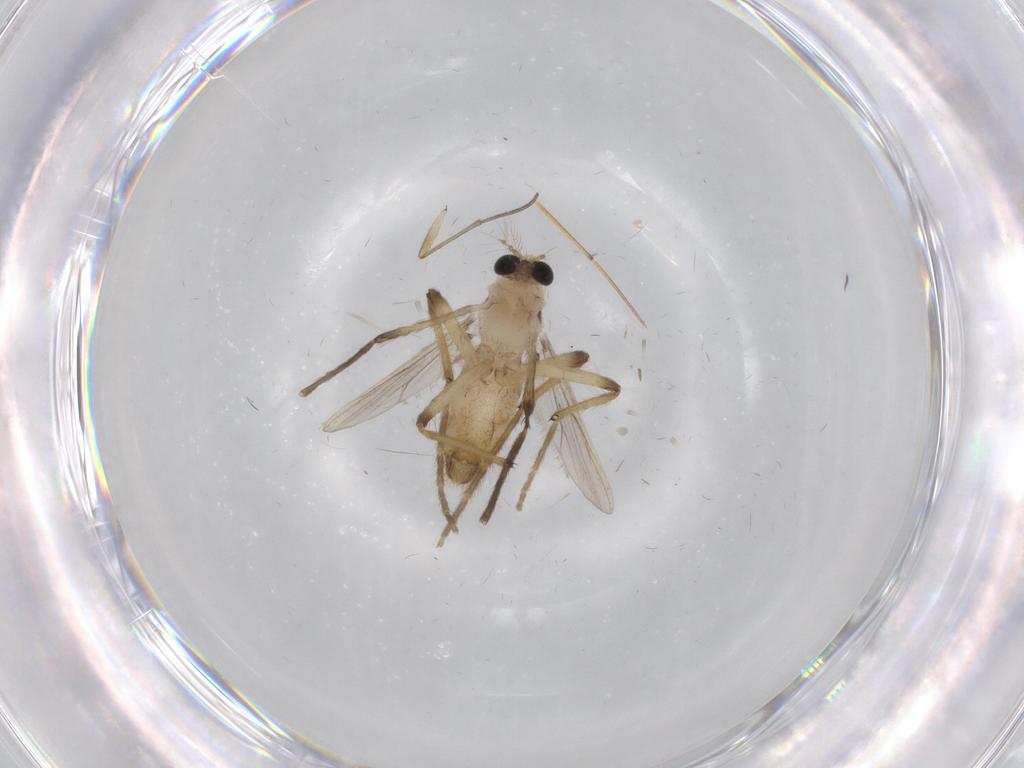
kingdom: Animalia
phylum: Arthropoda
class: Insecta
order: Diptera
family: Chironomidae
